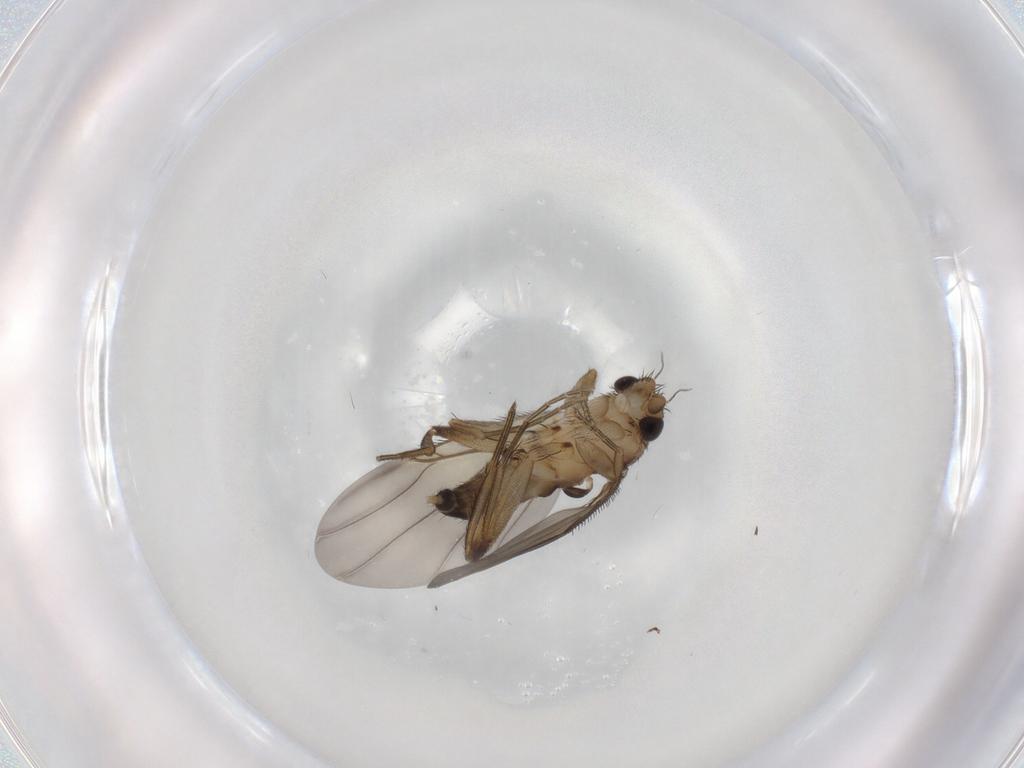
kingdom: Animalia
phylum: Arthropoda
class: Insecta
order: Diptera
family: Phoridae
